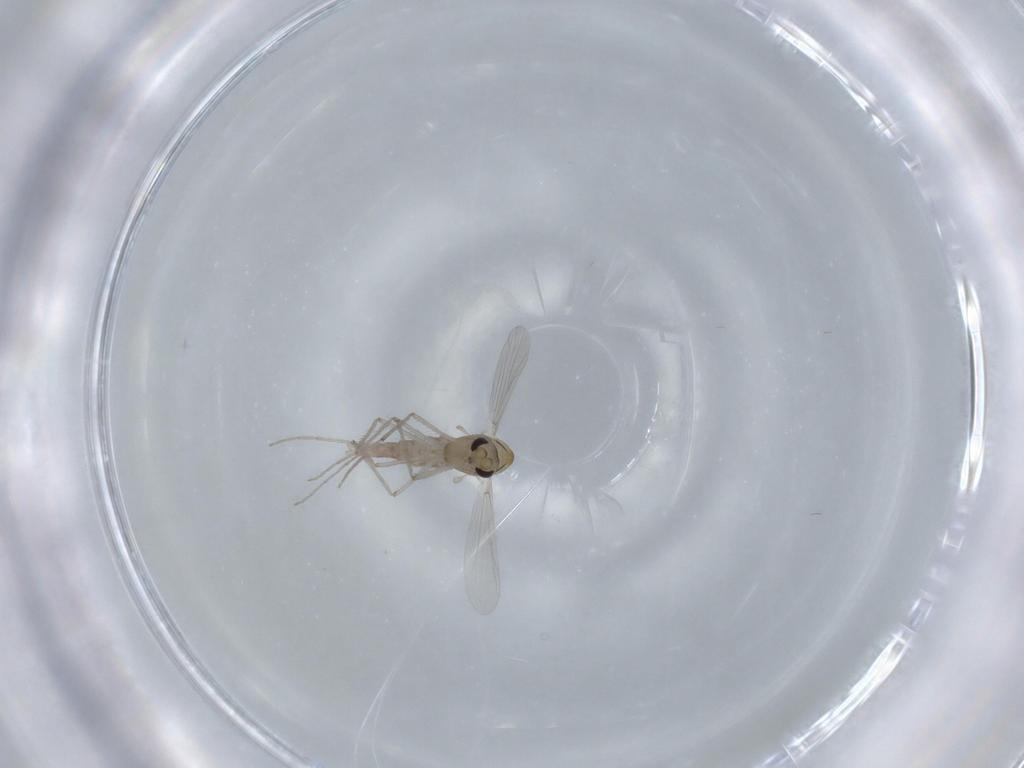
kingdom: Animalia
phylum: Arthropoda
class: Insecta
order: Diptera
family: Chironomidae
